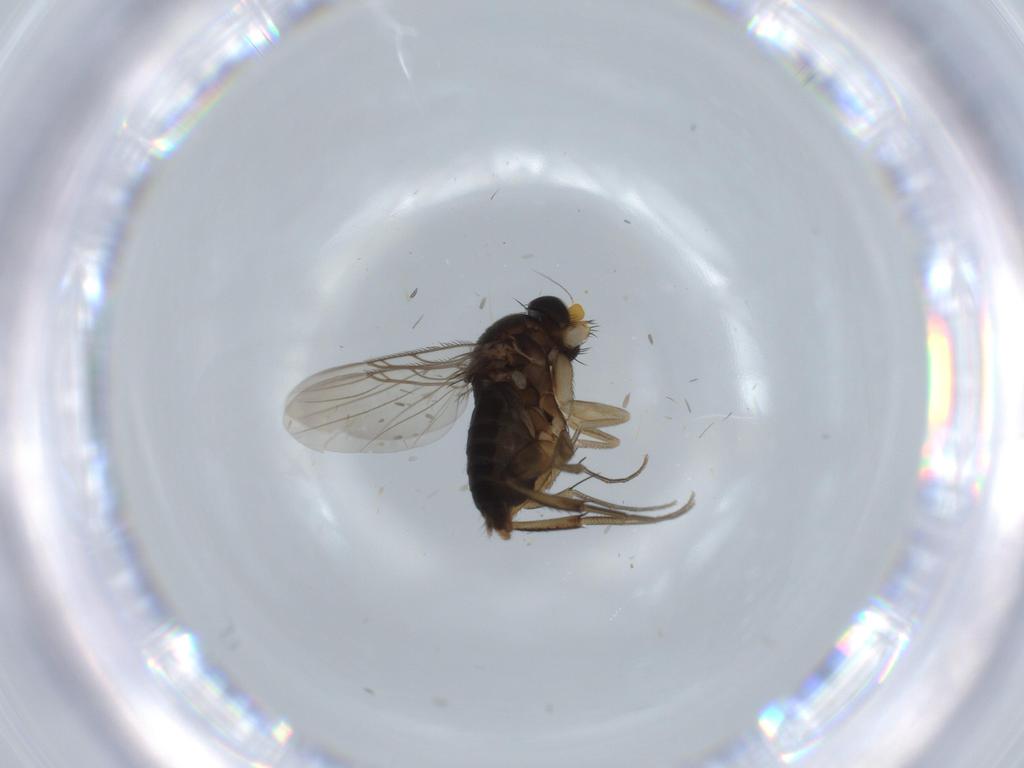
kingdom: Animalia
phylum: Arthropoda
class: Insecta
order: Diptera
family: Phoridae
